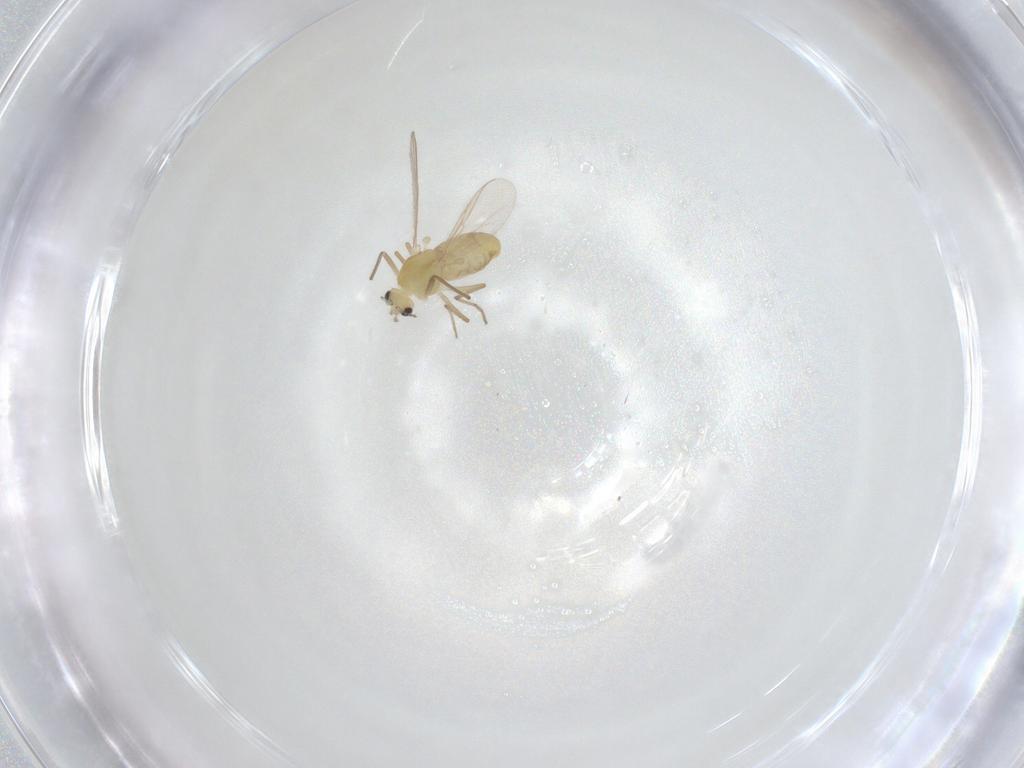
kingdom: Animalia
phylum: Arthropoda
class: Insecta
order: Diptera
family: Chironomidae
